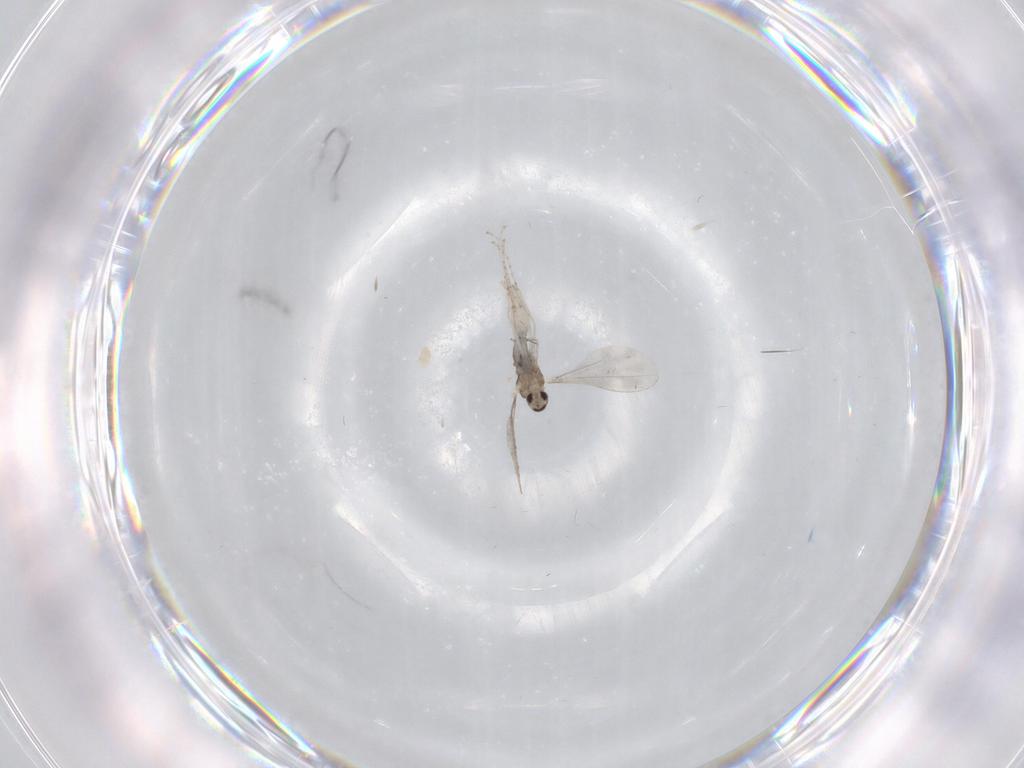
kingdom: Animalia
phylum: Arthropoda
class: Insecta
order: Diptera
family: Cecidomyiidae
